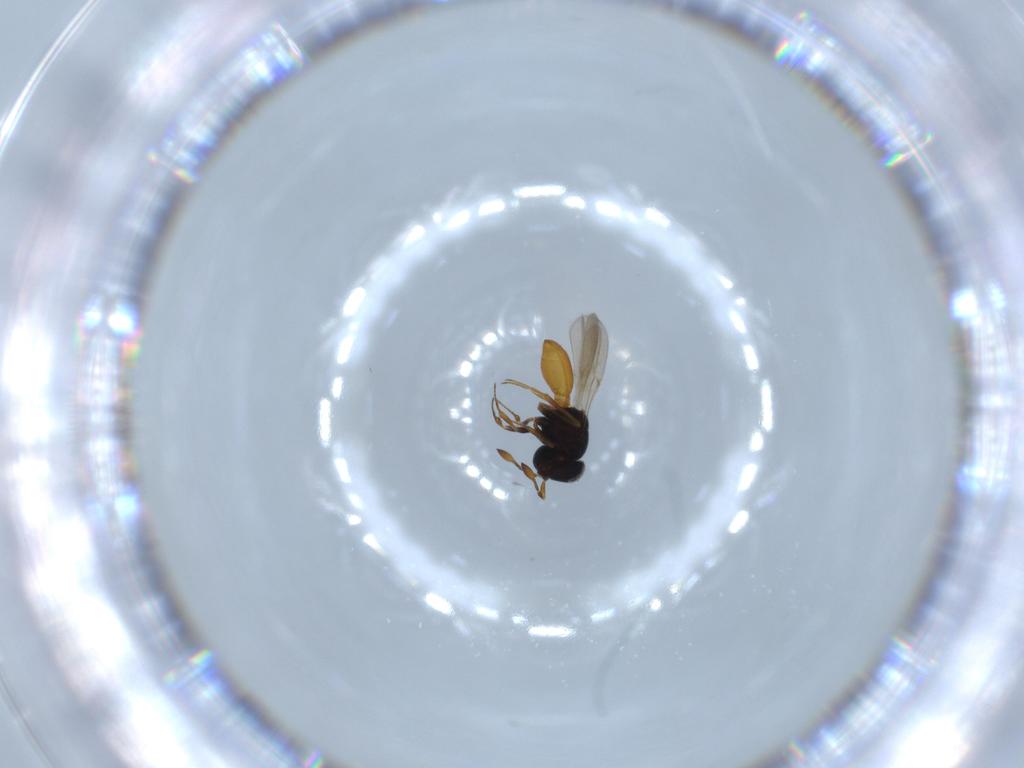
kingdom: Animalia
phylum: Arthropoda
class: Insecta
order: Hymenoptera
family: Scelionidae
